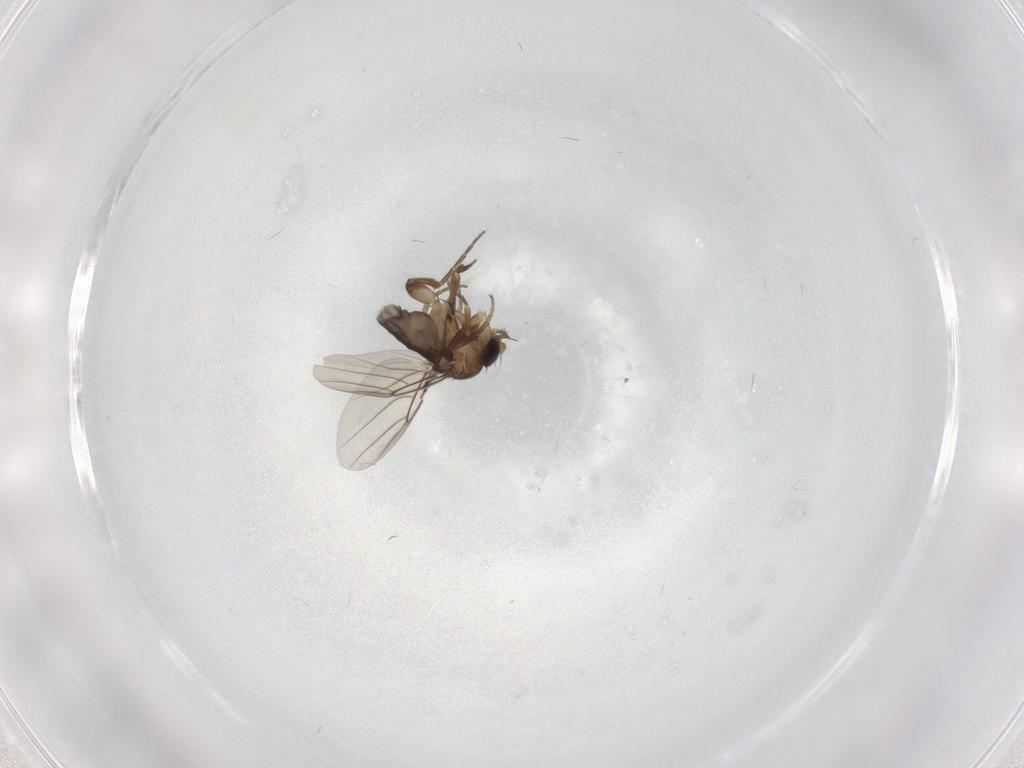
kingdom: Animalia
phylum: Arthropoda
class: Insecta
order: Diptera
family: Phoridae
